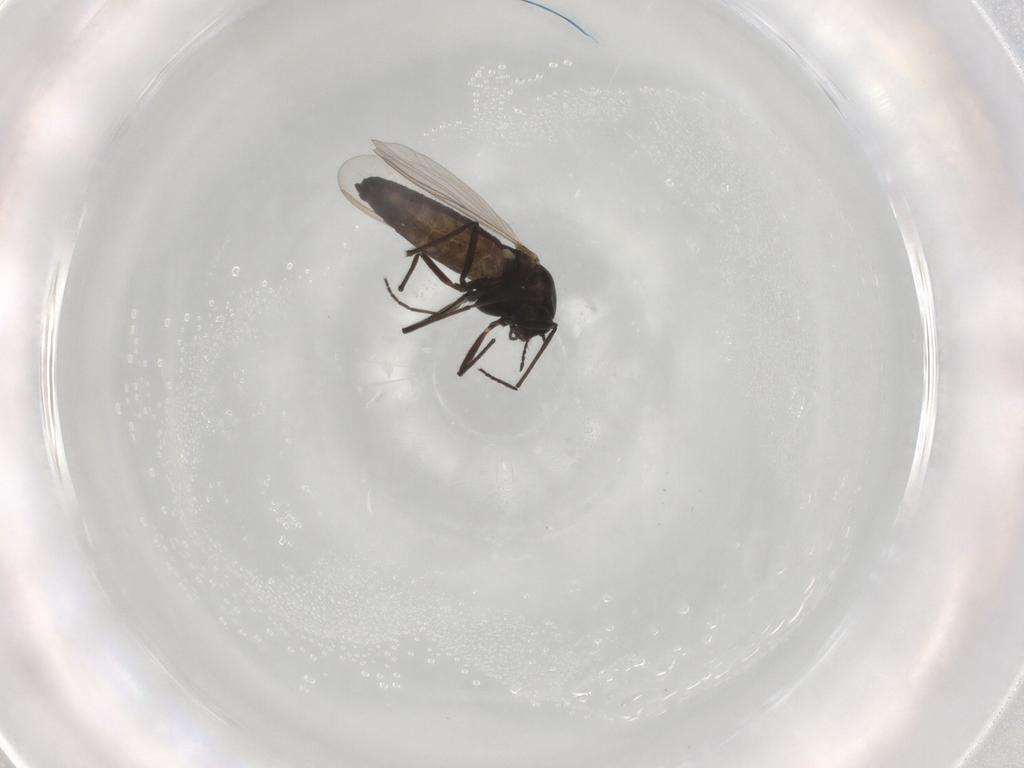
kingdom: Animalia
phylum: Arthropoda
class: Insecta
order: Diptera
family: Chironomidae
